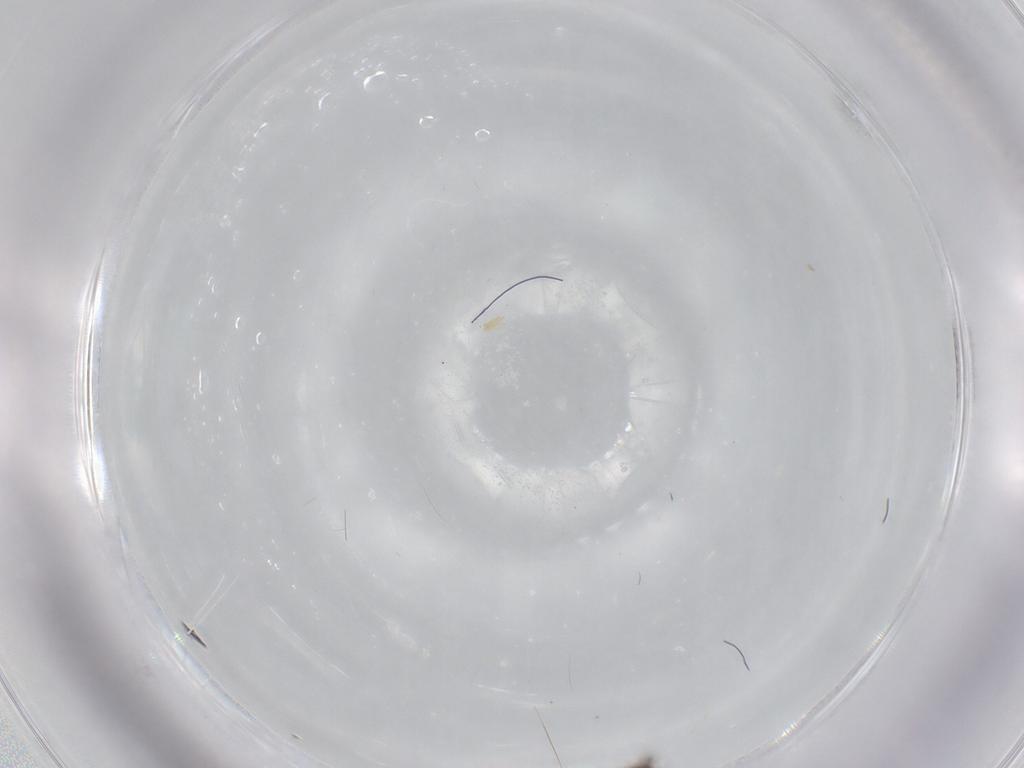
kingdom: Animalia
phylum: Arthropoda
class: Insecta
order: Diptera
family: Chironomidae
